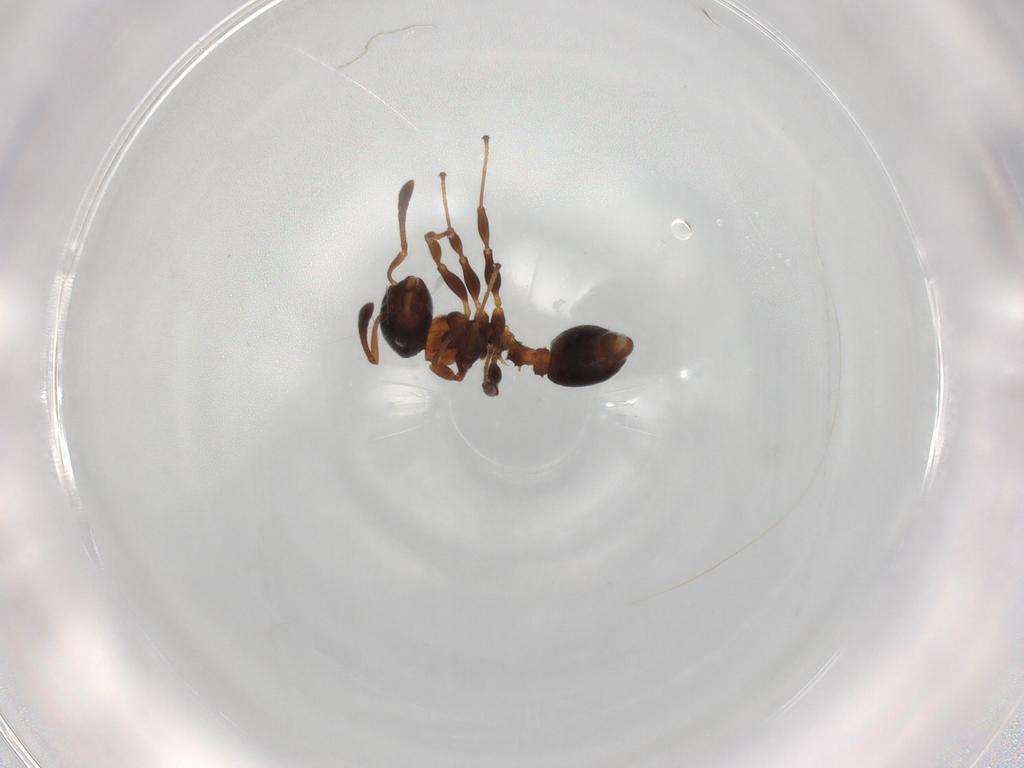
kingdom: Animalia
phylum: Arthropoda
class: Insecta
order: Hymenoptera
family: Formicidae
